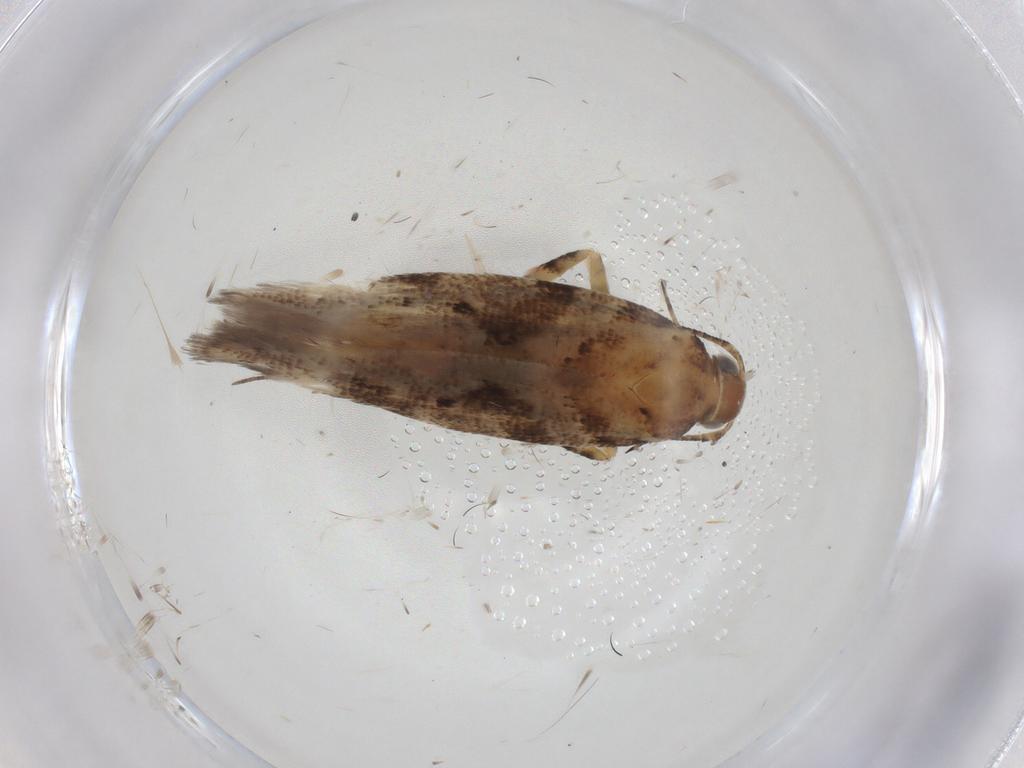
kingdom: Animalia
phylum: Arthropoda
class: Insecta
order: Lepidoptera
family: Gelechiidae
